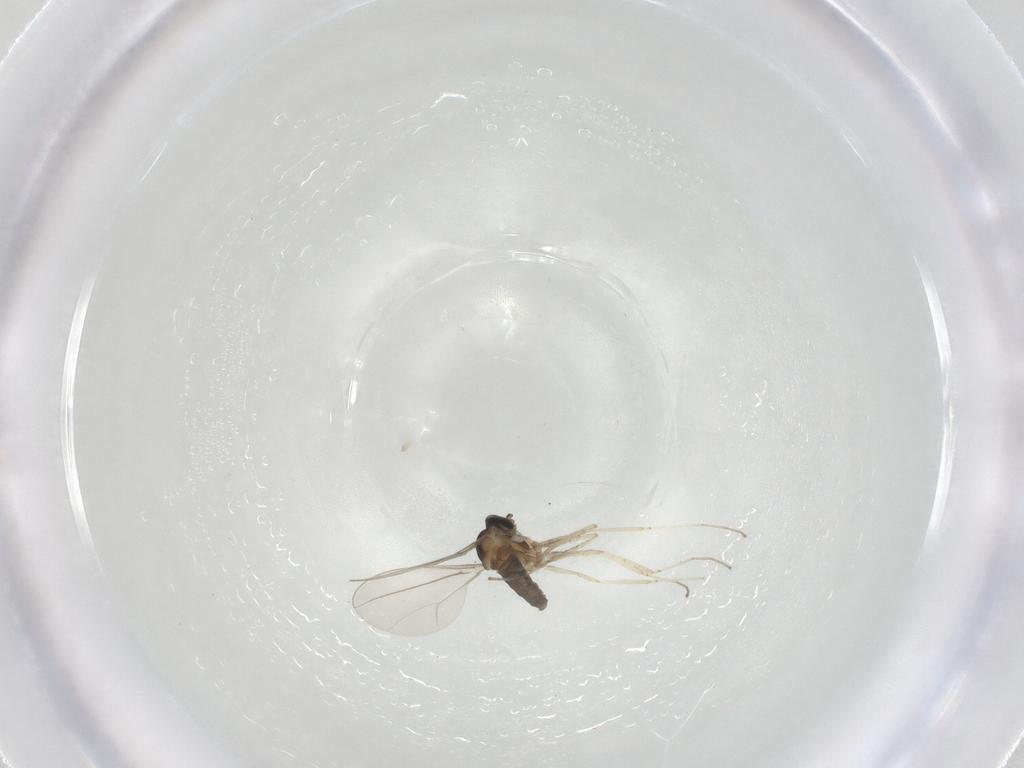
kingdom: Animalia
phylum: Arthropoda
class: Insecta
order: Diptera
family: Cecidomyiidae
